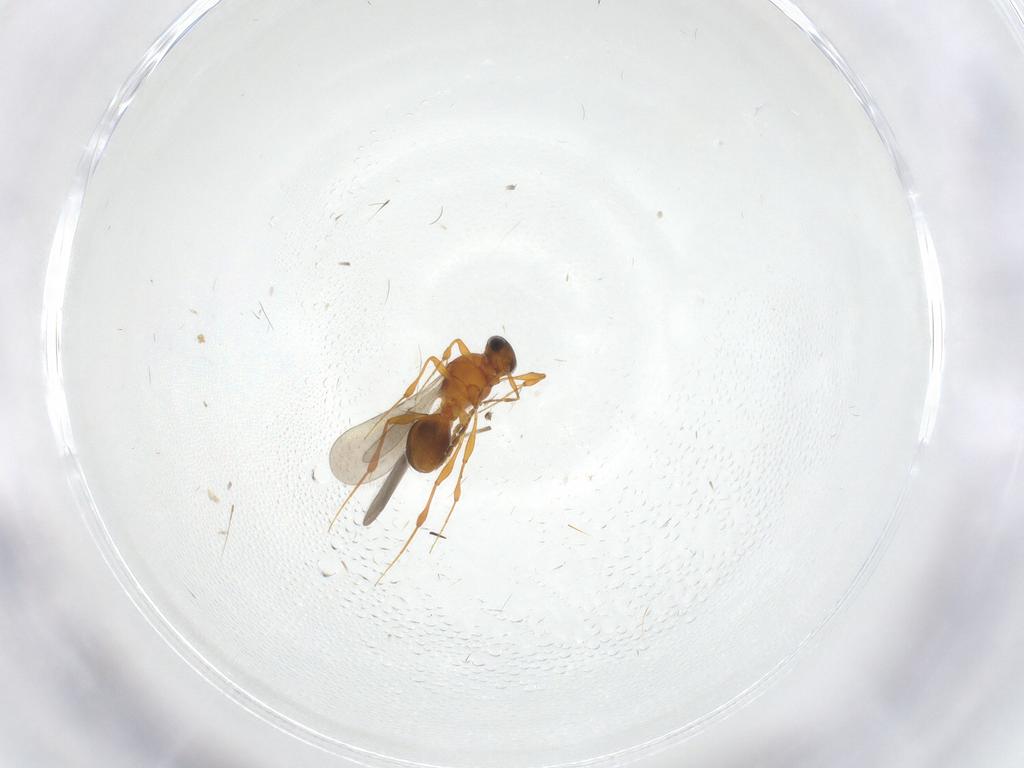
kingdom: Animalia
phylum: Arthropoda
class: Insecta
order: Hymenoptera
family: Platygastridae
